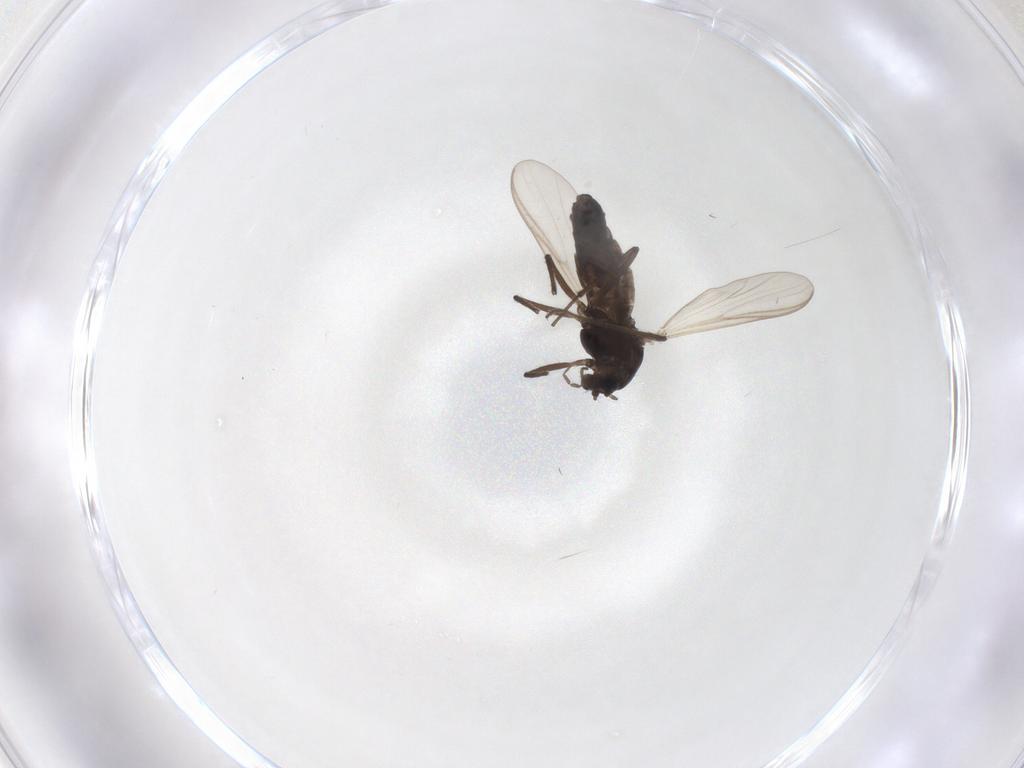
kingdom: Animalia
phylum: Arthropoda
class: Insecta
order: Diptera
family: Chironomidae
